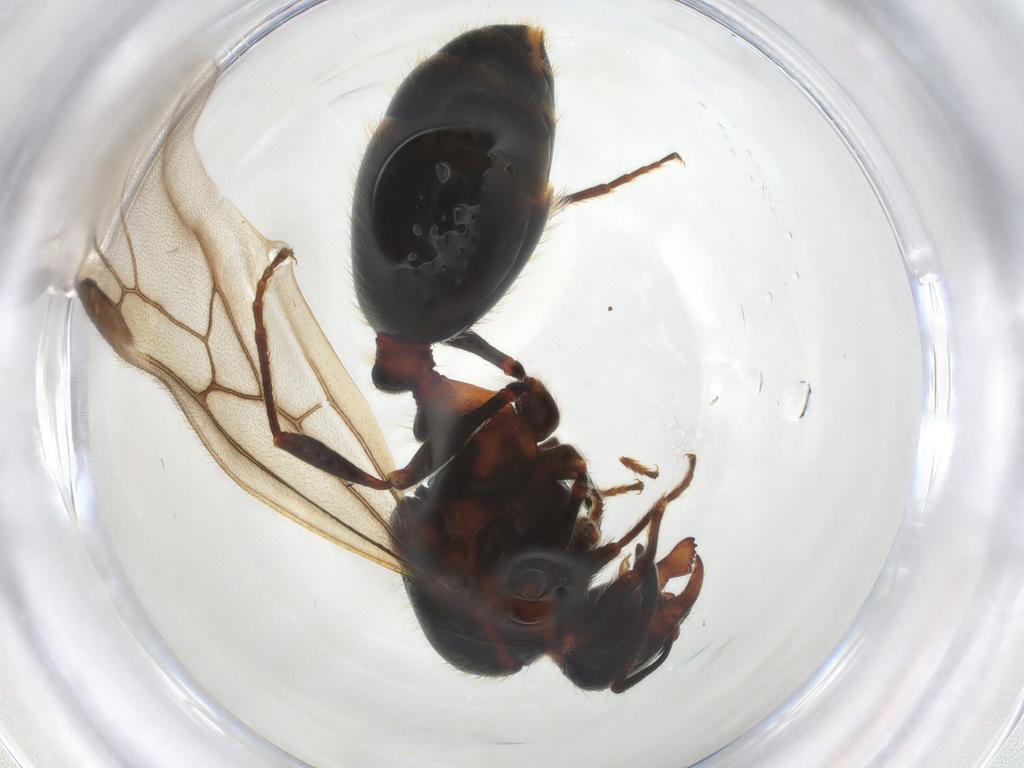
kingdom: Animalia
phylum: Arthropoda
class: Insecta
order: Hymenoptera
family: Formicidae
